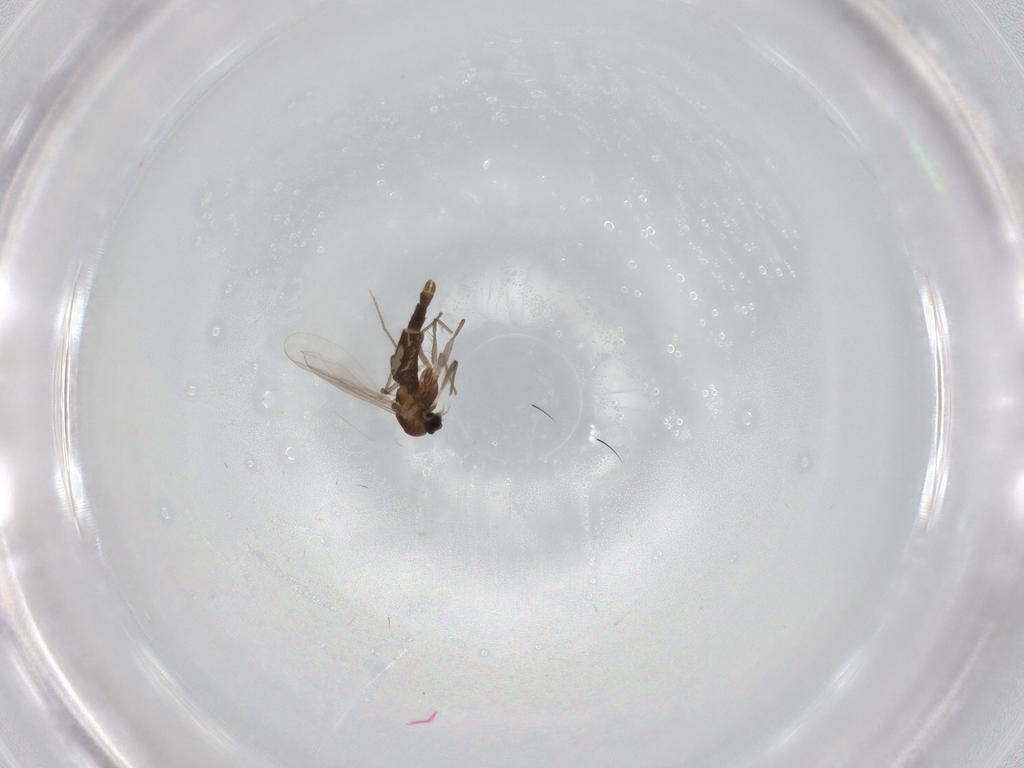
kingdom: Animalia
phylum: Arthropoda
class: Insecta
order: Diptera
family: Chironomidae
